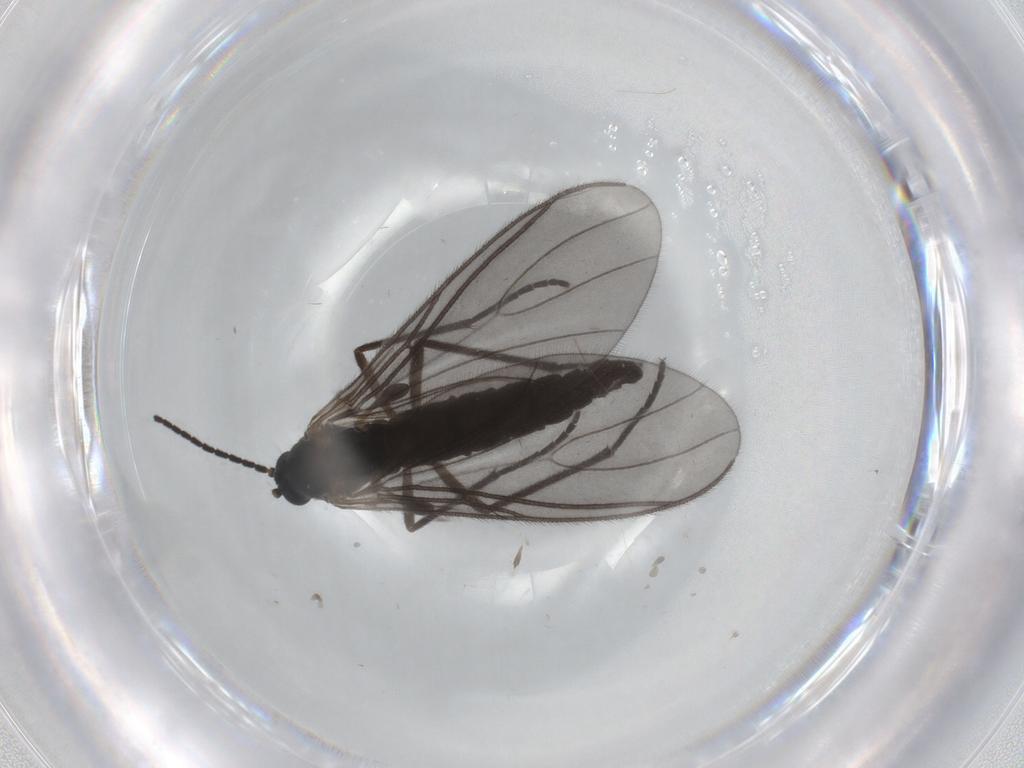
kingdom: Animalia
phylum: Arthropoda
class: Insecta
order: Diptera
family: Sciaridae
